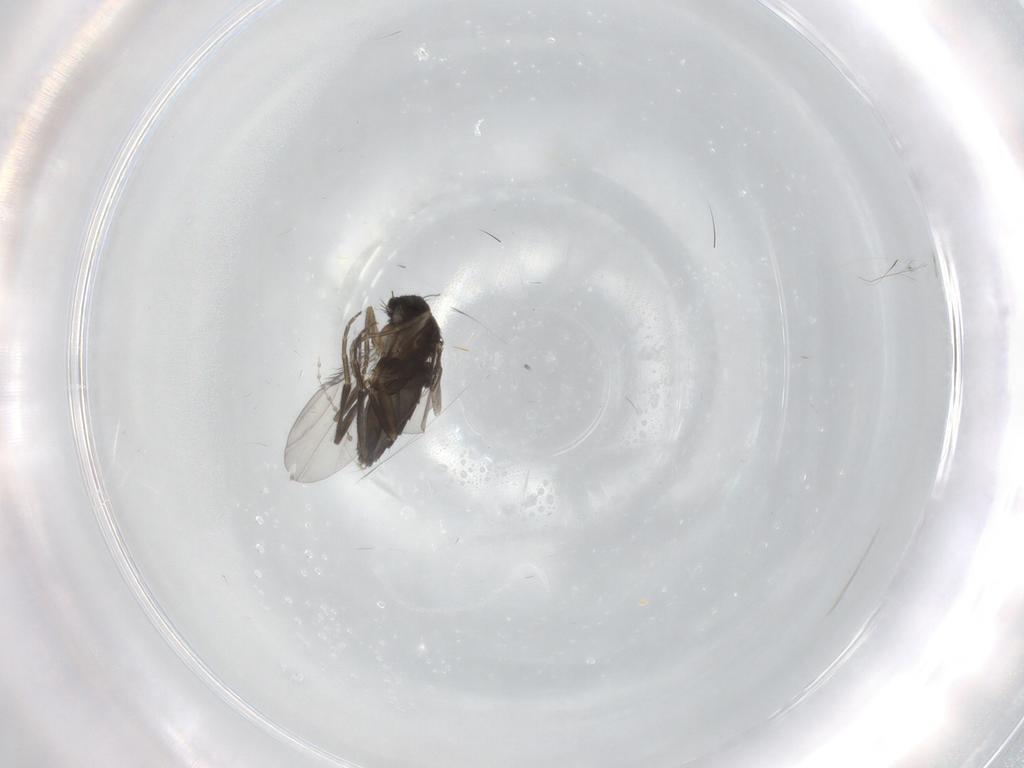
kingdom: Animalia
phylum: Arthropoda
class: Insecta
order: Diptera
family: Phoridae
